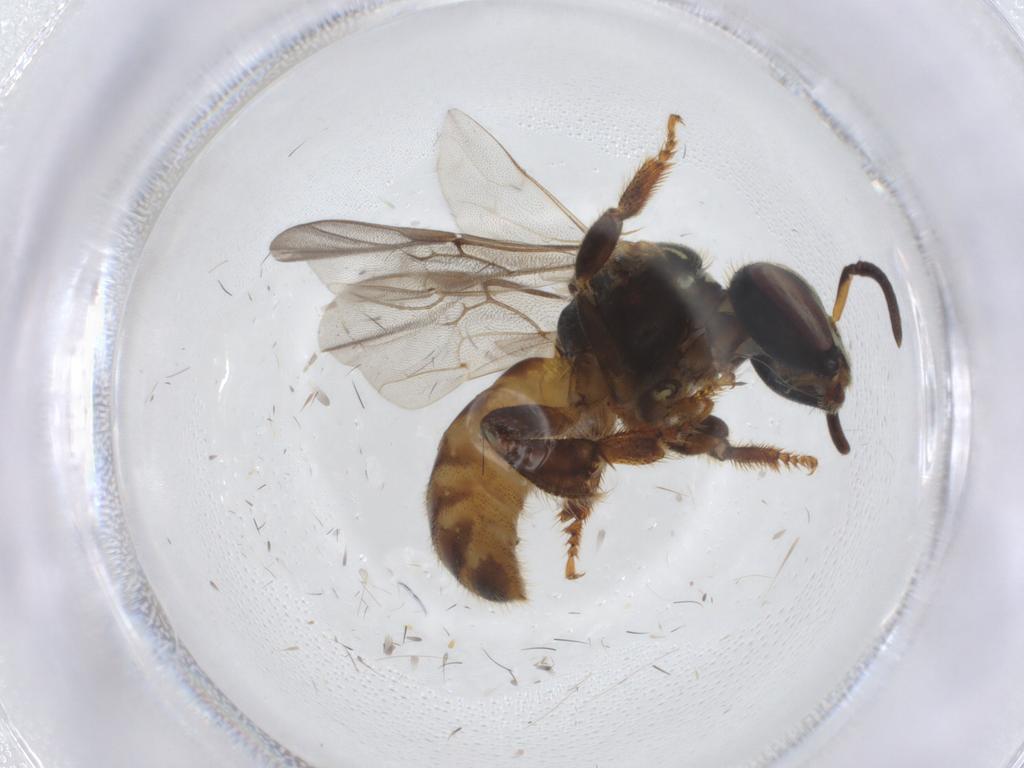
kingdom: Animalia
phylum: Arthropoda
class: Insecta
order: Hymenoptera
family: Apidae
